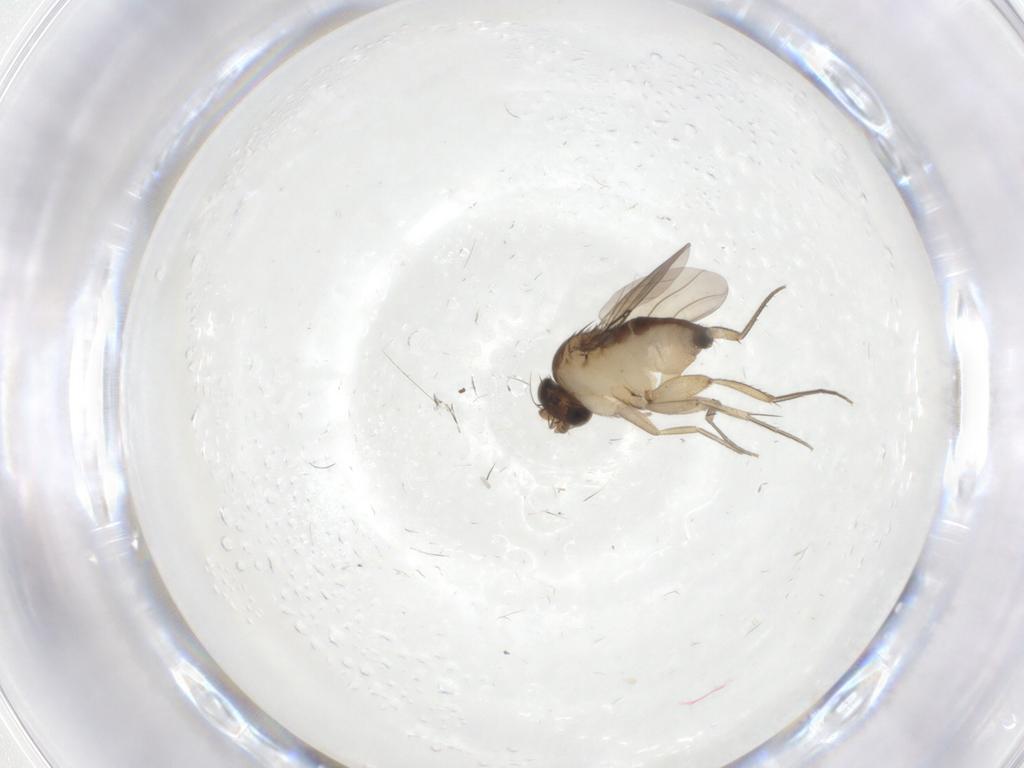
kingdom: Animalia
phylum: Arthropoda
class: Insecta
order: Diptera
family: Phoridae
